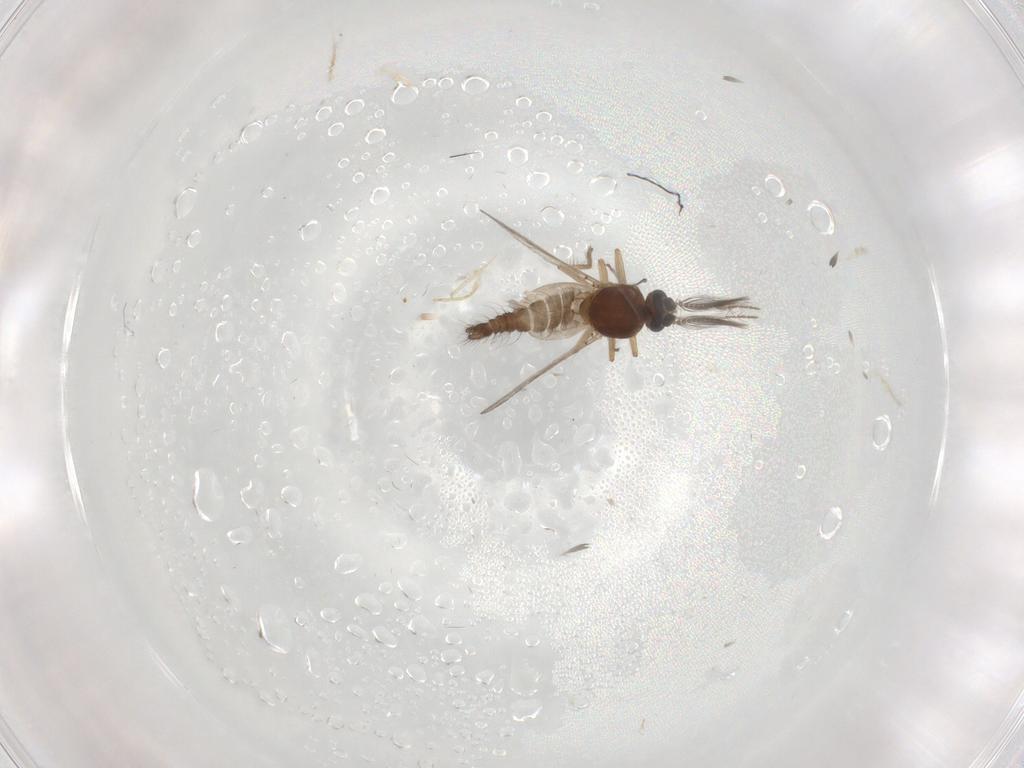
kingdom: Animalia
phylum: Arthropoda
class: Insecta
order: Diptera
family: Ceratopogonidae
